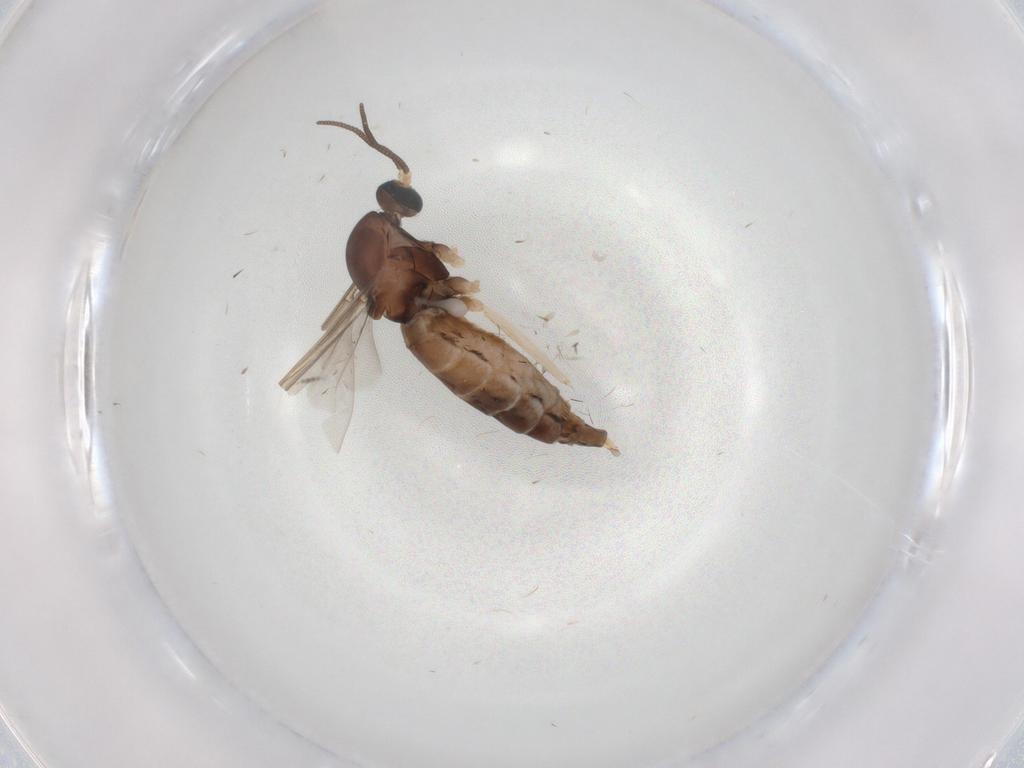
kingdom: Animalia
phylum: Arthropoda
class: Insecta
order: Diptera
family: Cecidomyiidae
